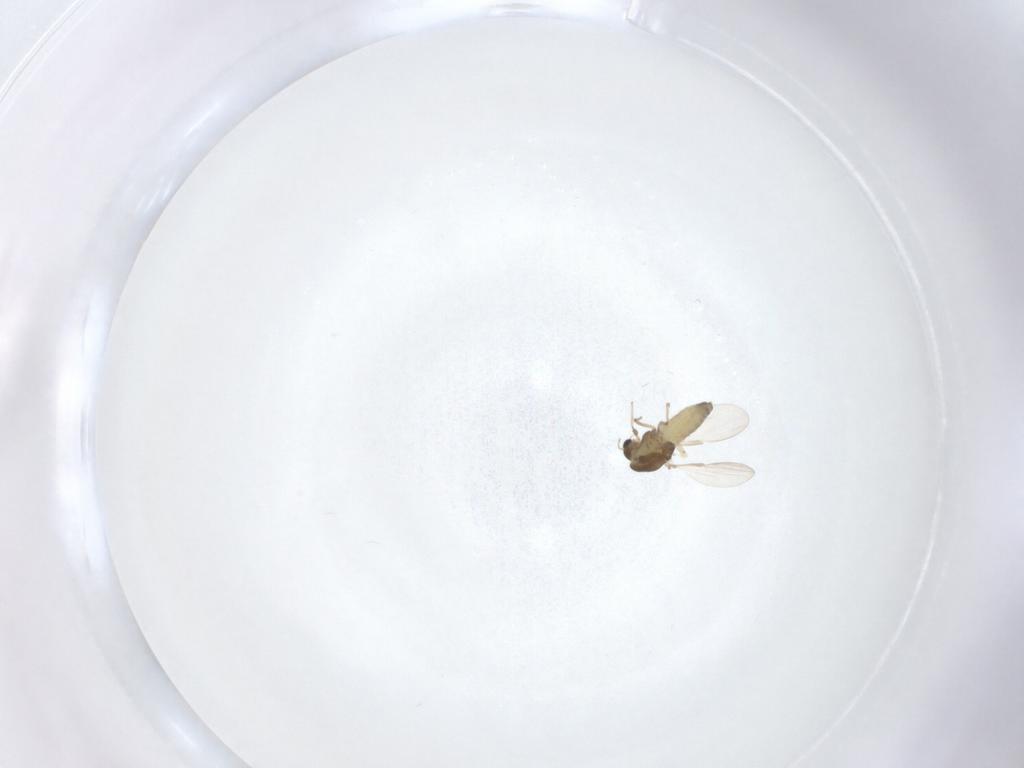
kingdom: Animalia
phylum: Arthropoda
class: Insecta
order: Diptera
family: Chironomidae
